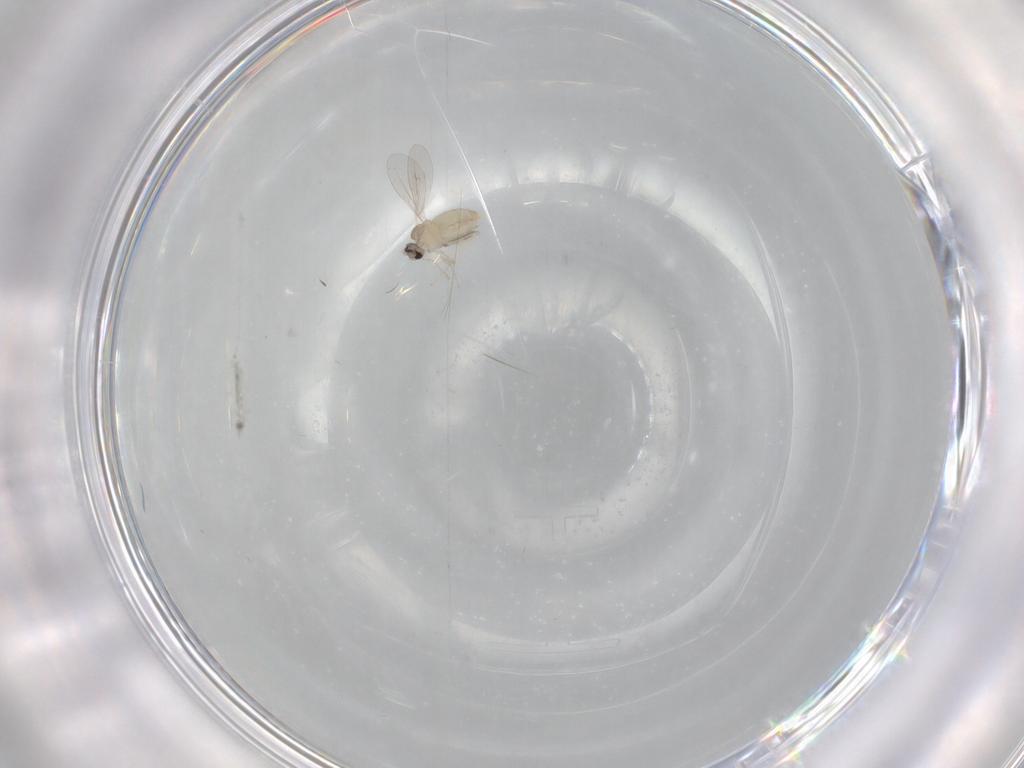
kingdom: Animalia
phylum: Arthropoda
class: Insecta
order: Diptera
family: Cecidomyiidae
